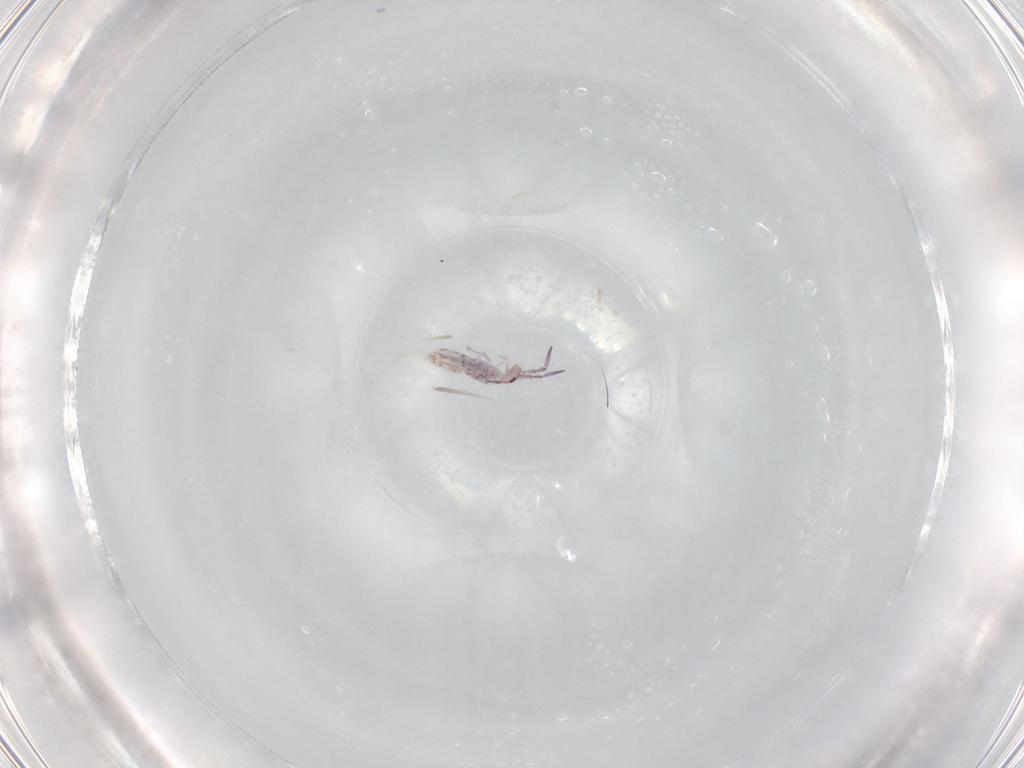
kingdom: Animalia
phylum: Arthropoda
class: Collembola
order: Entomobryomorpha
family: Entomobryidae
